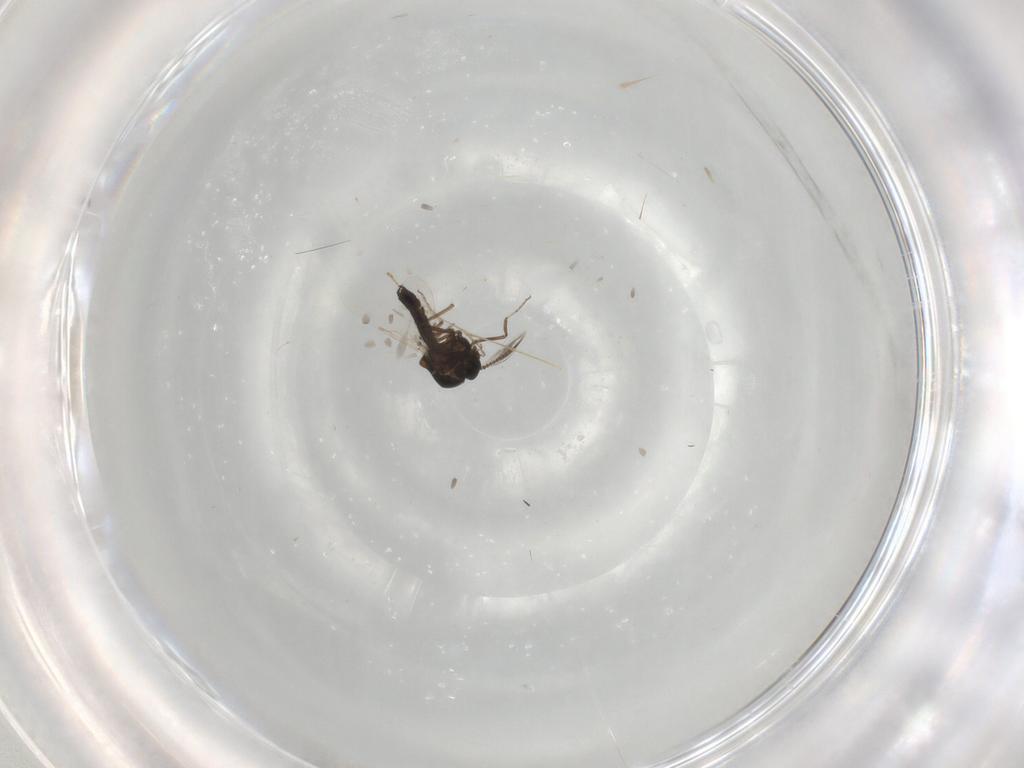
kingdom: Animalia
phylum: Arthropoda
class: Insecta
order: Diptera
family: Ceratopogonidae
